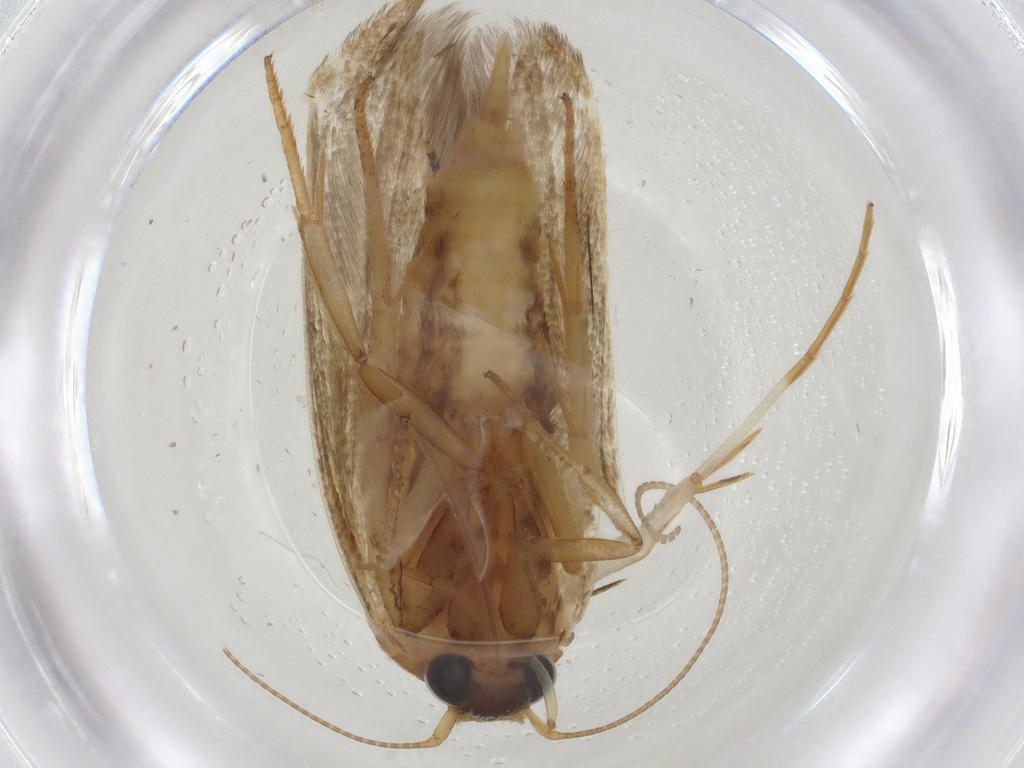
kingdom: Animalia
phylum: Arthropoda
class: Insecta
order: Lepidoptera
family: Blastobasidae
